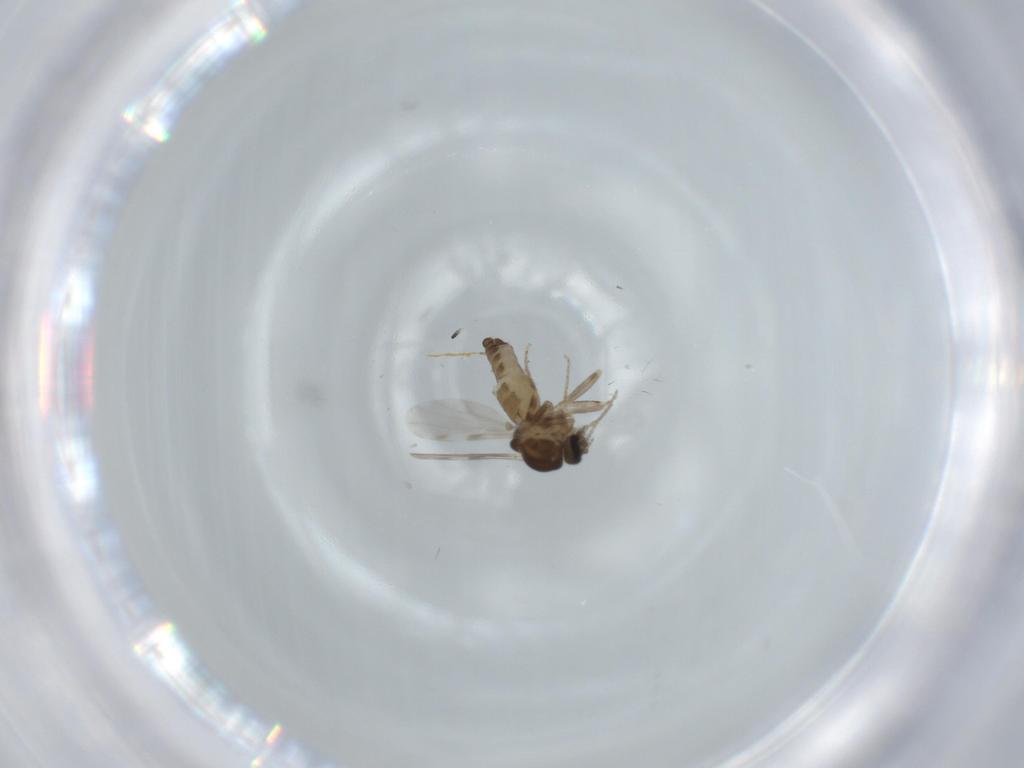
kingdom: Animalia
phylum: Arthropoda
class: Insecta
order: Diptera
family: Ceratopogonidae
